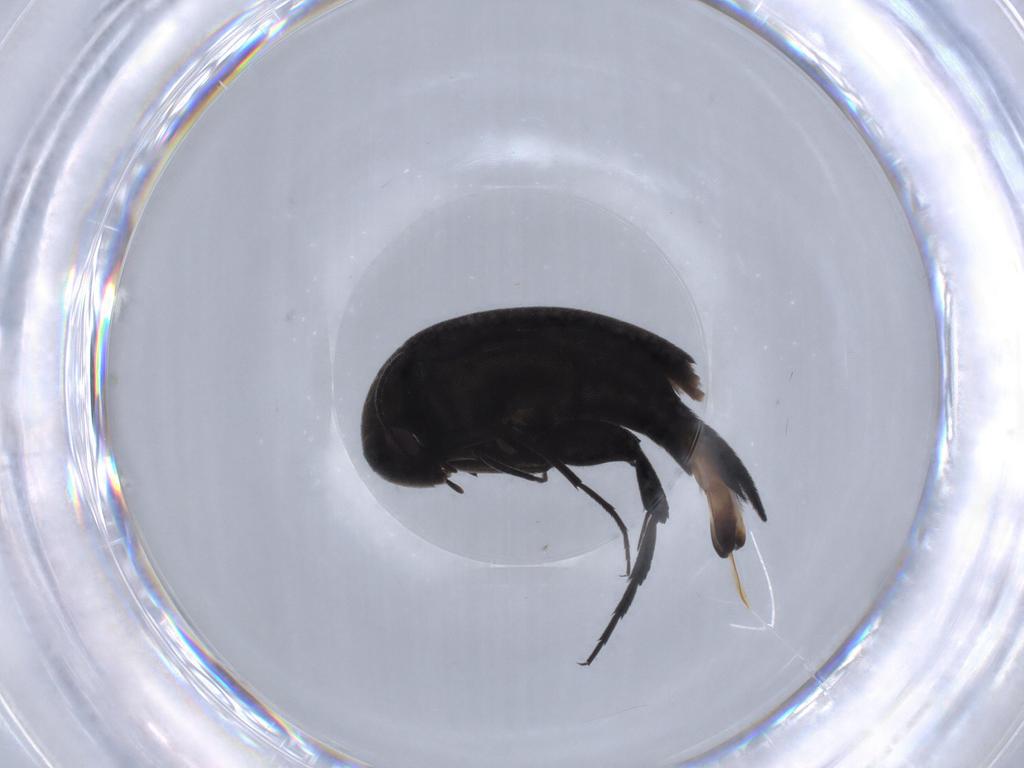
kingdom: Animalia
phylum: Arthropoda
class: Insecta
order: Coleoptera
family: Mordellidae
